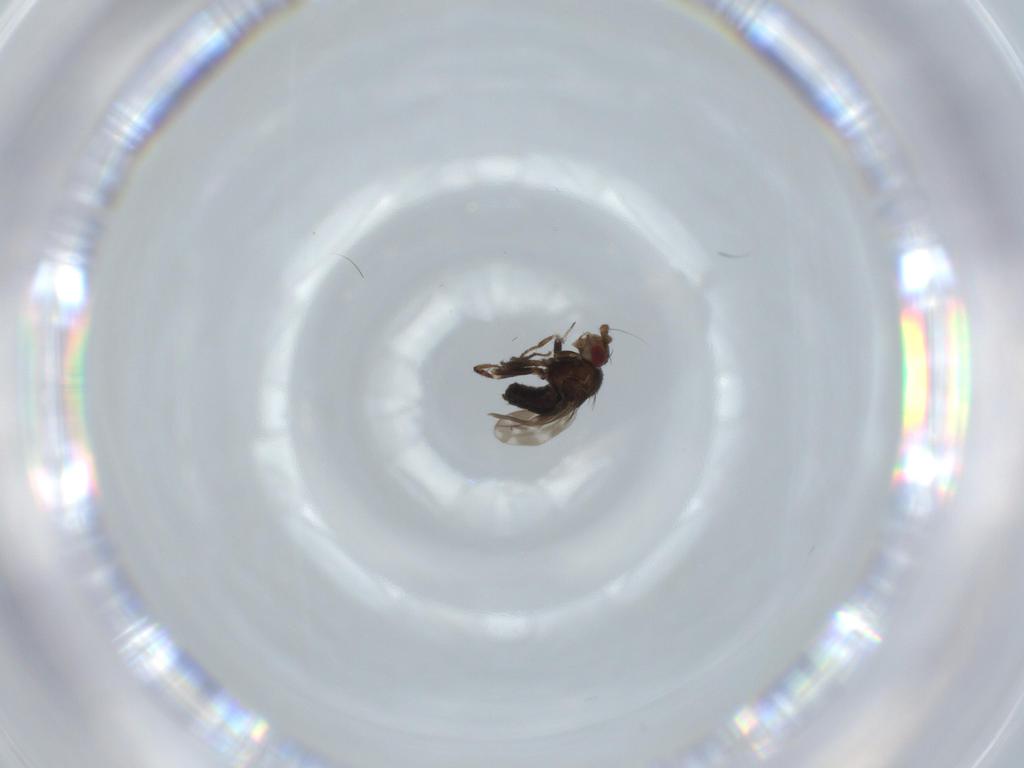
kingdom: Animalia
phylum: Arthropoda
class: Insecta
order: Diptera
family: Sphaeroceridae
